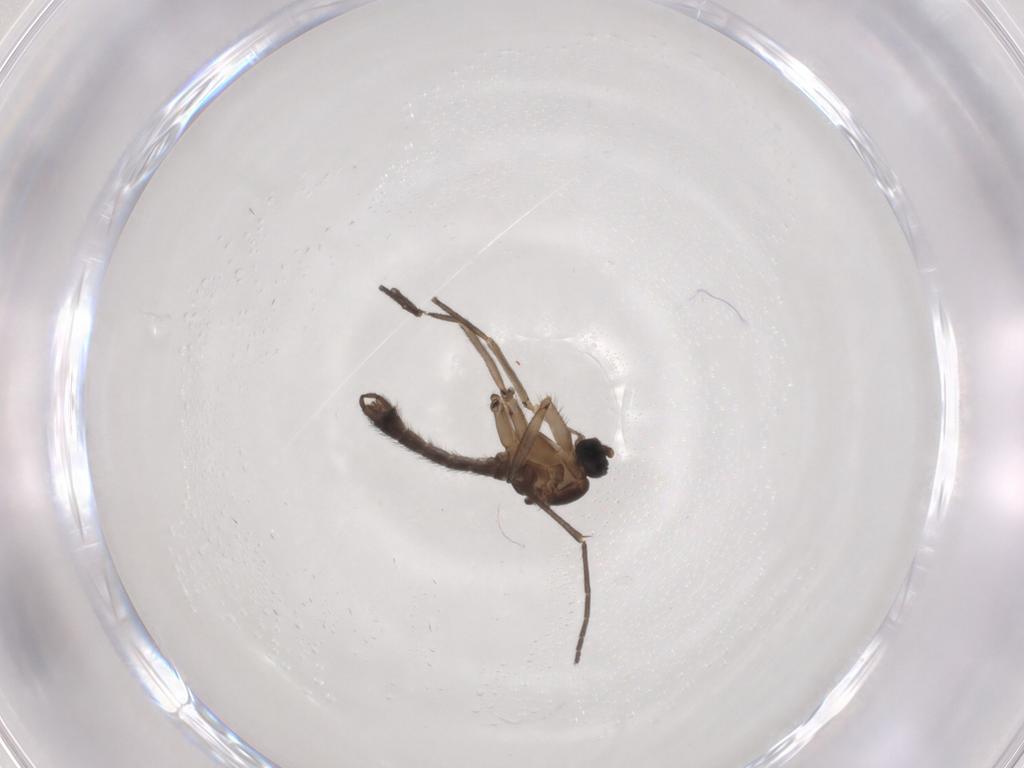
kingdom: Animalia
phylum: Arthropoda
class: Insecta
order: Diptera
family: Sciaridae
